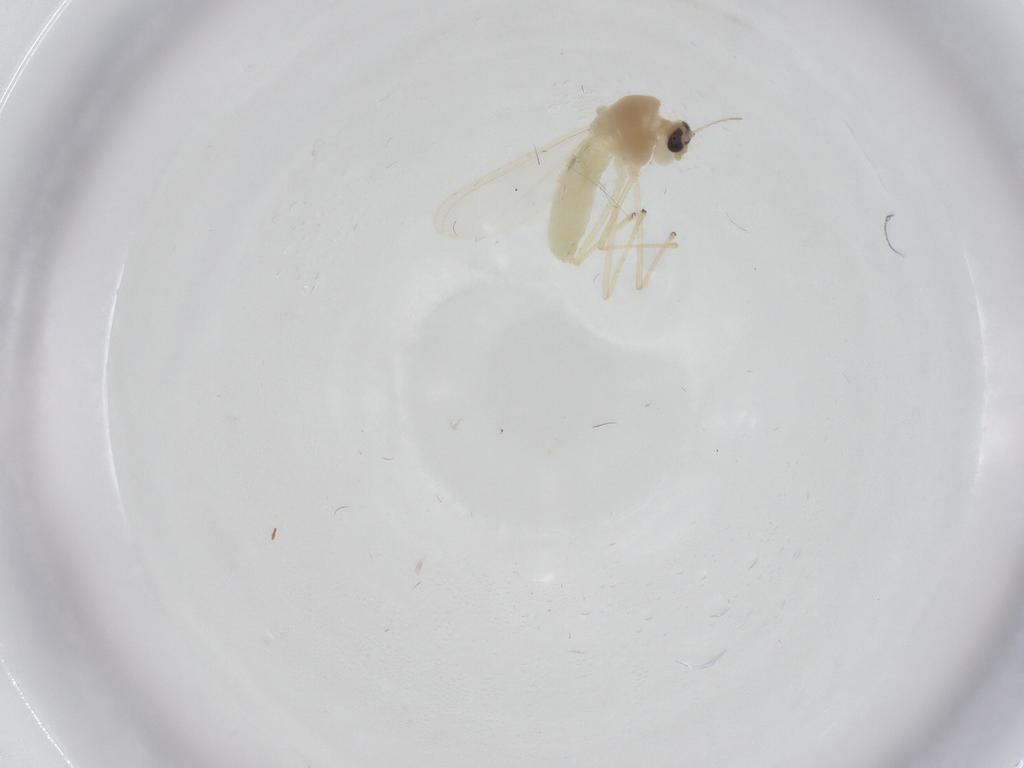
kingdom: Animalia
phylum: Arthropoda
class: Insecta
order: Diptera
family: Chironomidae
